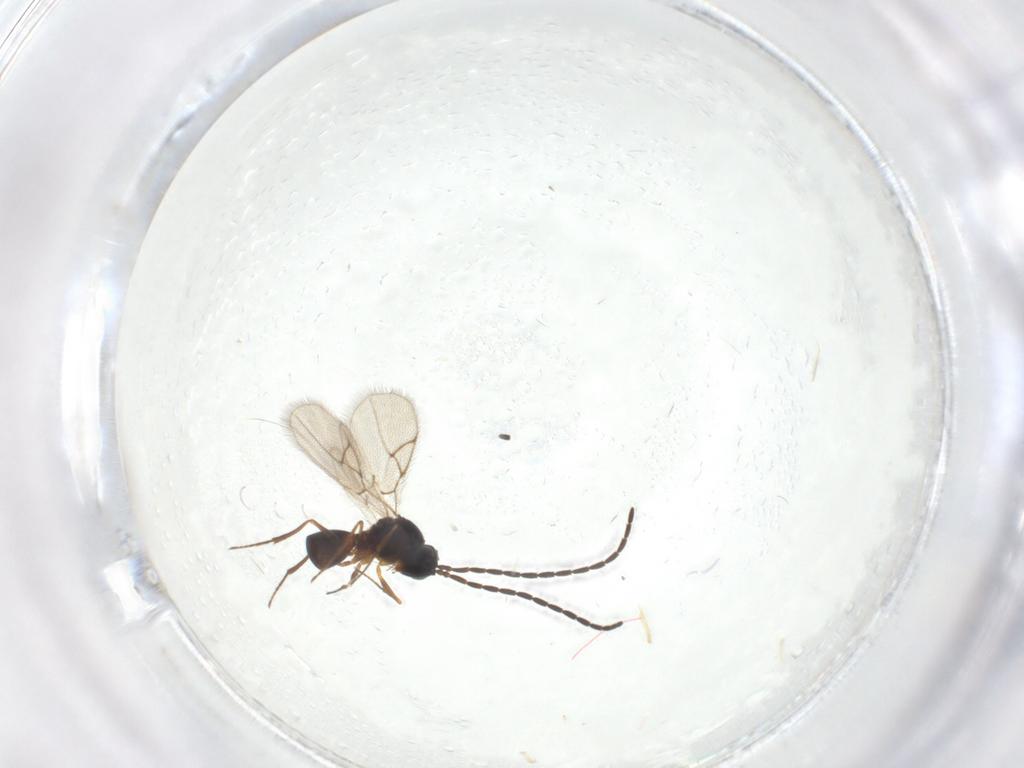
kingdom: Animalia
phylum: Arthropoda
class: Insecta
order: Hymenoptera
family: Figitidae
